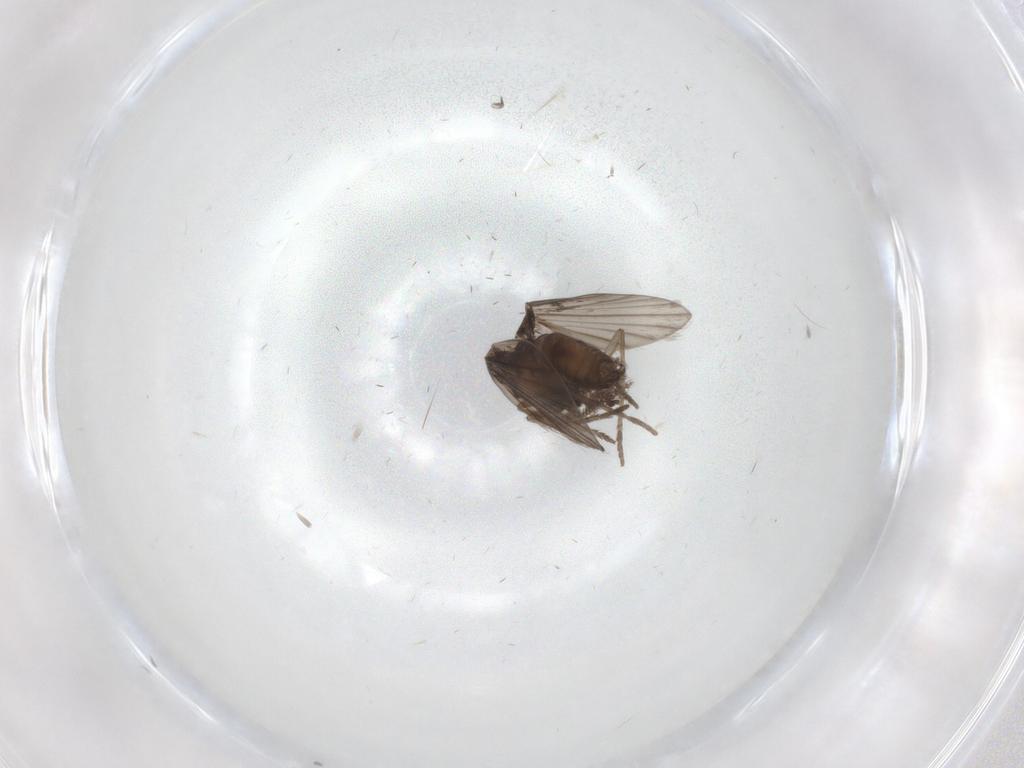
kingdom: Animalia
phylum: Arthropoda
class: Insecta
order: Diptera
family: Psychodidae
